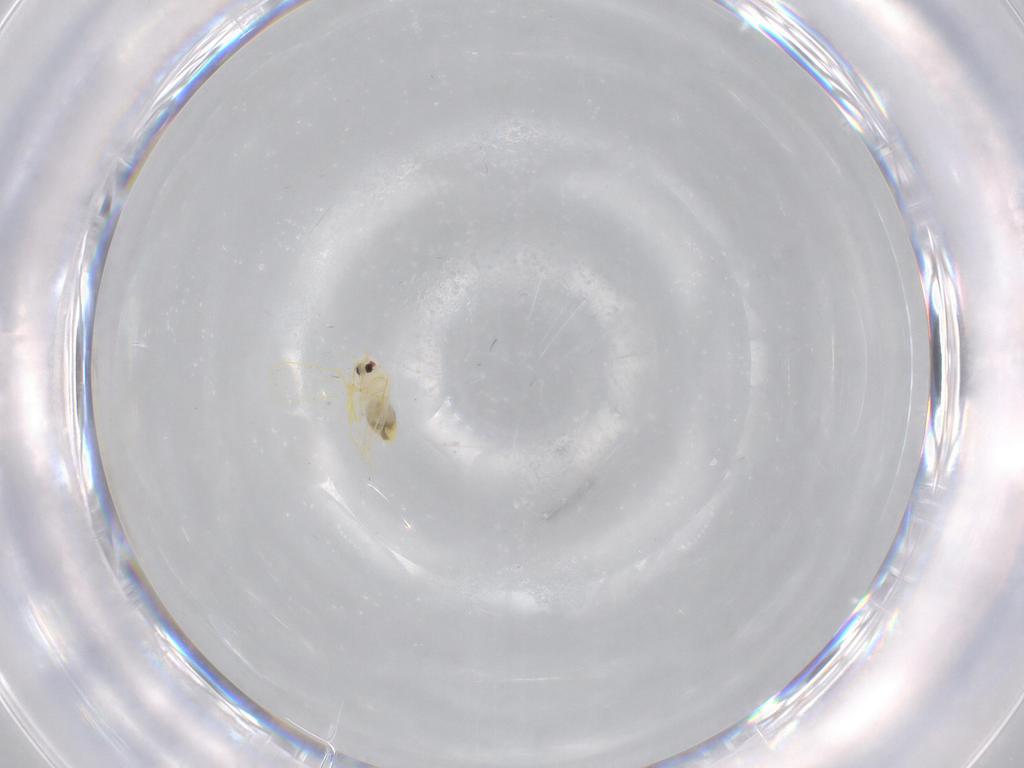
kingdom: Animalia
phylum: Arthropoda
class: Insecta
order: Hemiptera
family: Aleyrodidae
